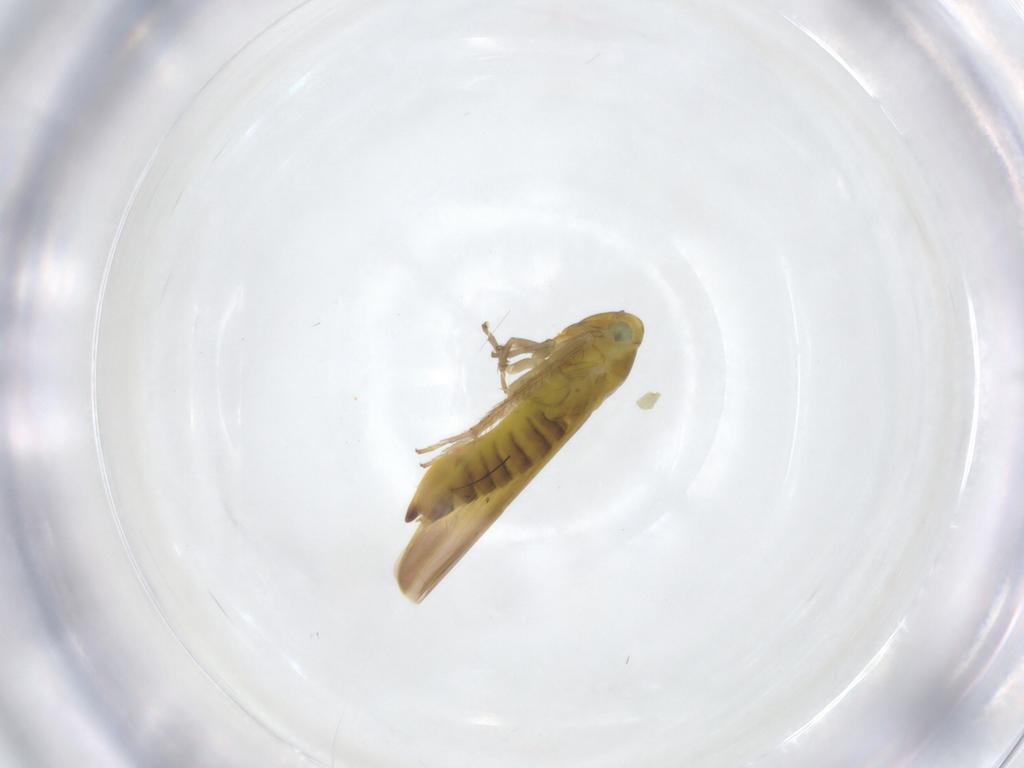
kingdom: Animalia
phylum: Arthropoda
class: Insecta
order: Hemiptera
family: Cicadellidae
